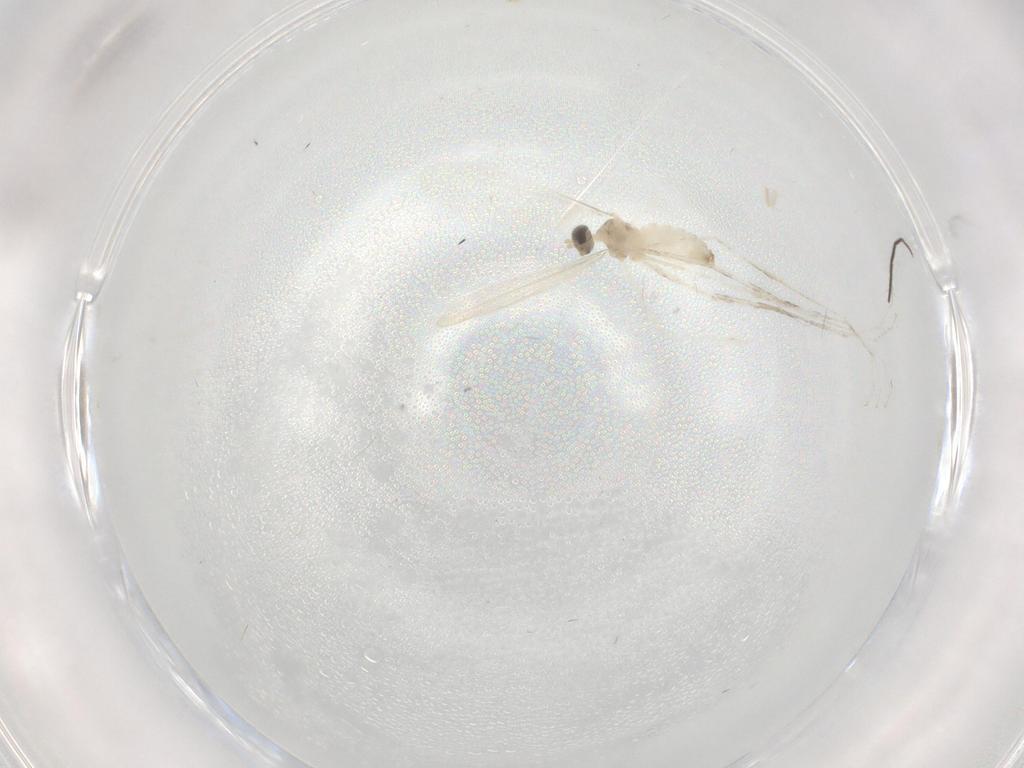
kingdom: Animalia
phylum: Arthropoda
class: Insecta
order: Diptera
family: Cecidomyiidae
